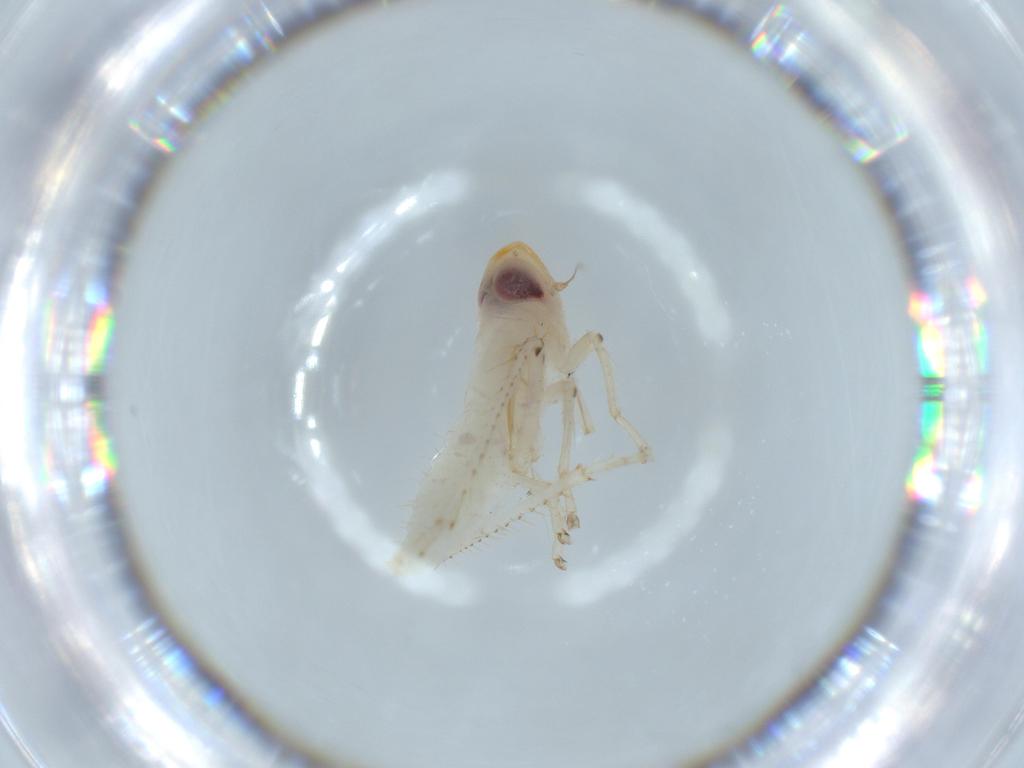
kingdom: Animalia
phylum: Arthropoda
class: Insecta
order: Hemiptera
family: Cicadellidae
